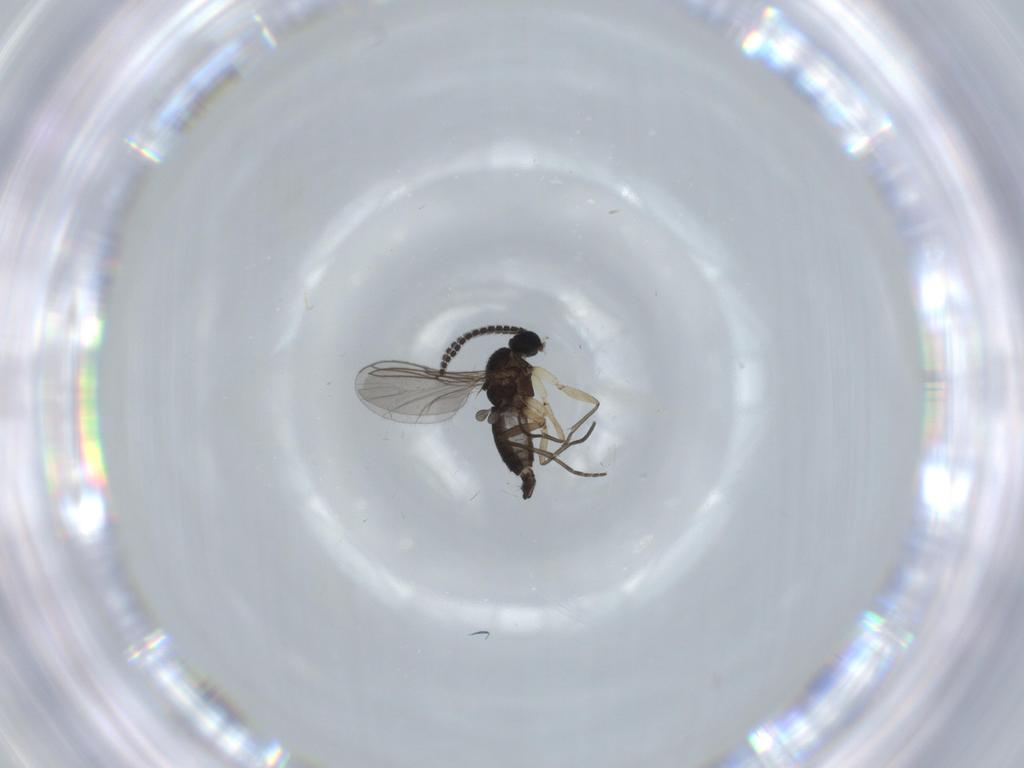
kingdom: Animalia
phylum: Arthropoda
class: Insecta
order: Diptera
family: Sciaridae
